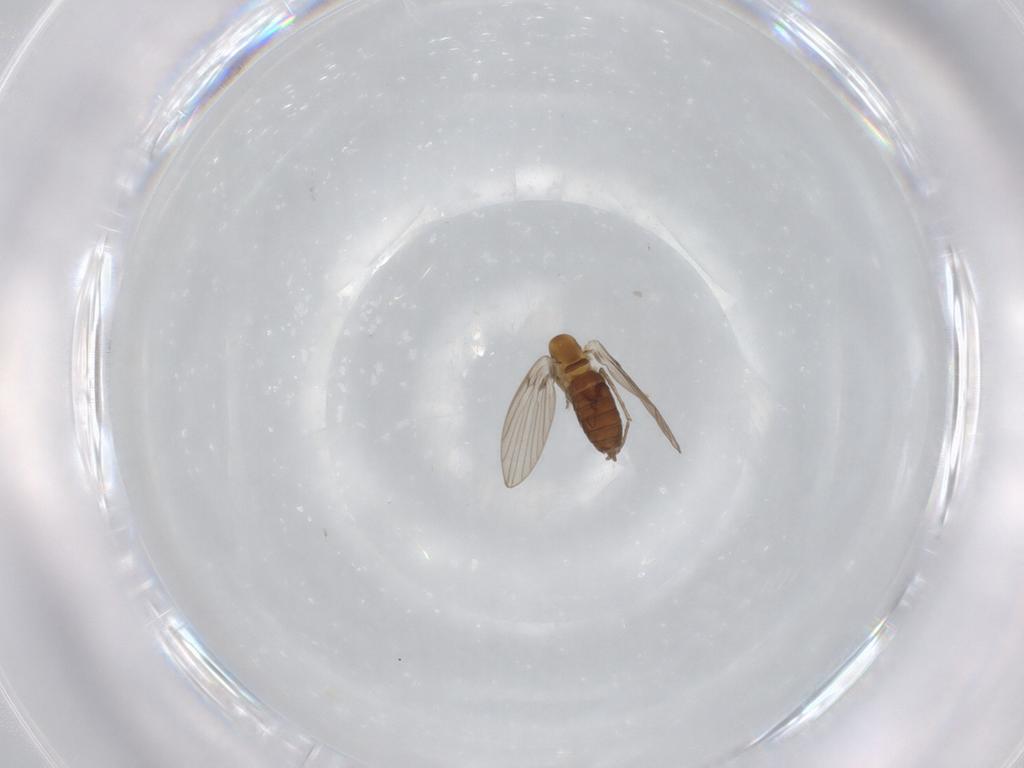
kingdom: Animalia
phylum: Arthropoda
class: Insecta
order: Diptera
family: Psychodidae
